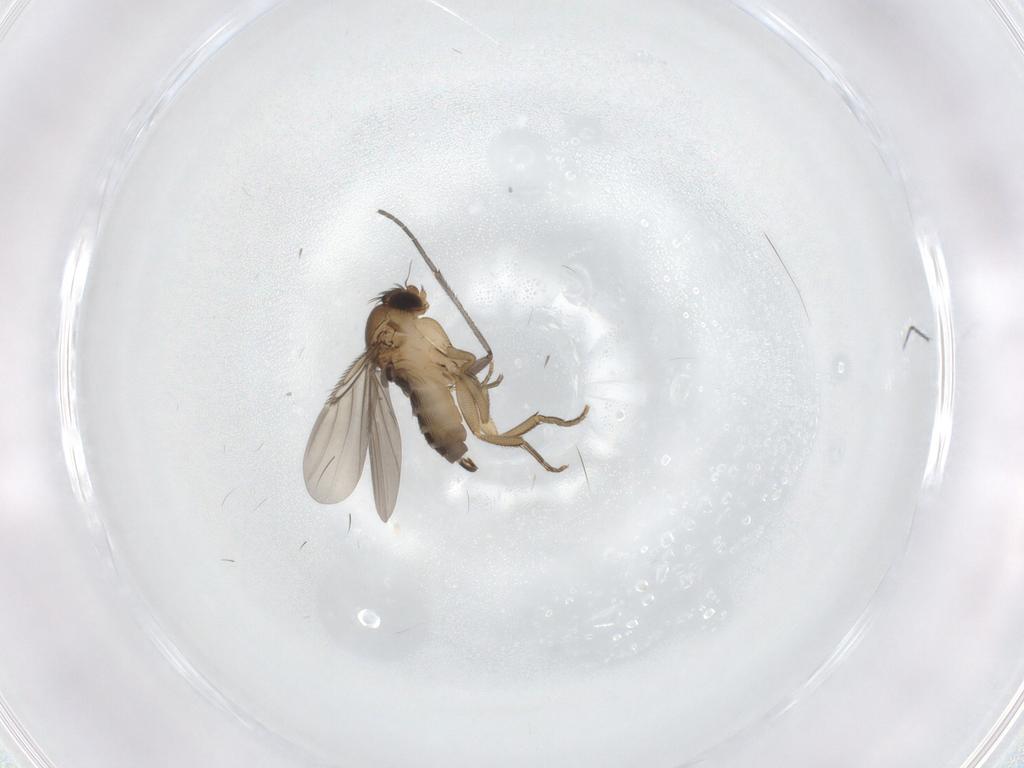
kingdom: Animalia
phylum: Arthropoda
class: Insecta
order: Diptera
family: Phoridae
